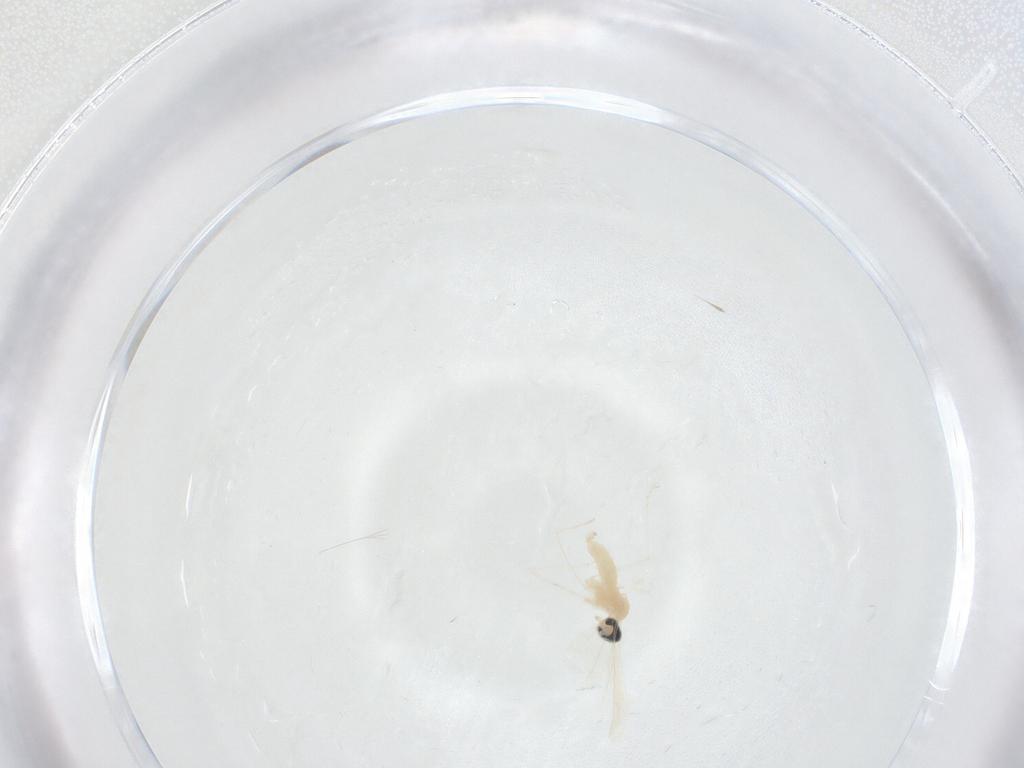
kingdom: Animalia
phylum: Arthropoda
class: Insecta
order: Diptera
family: Cecidomyiidae
